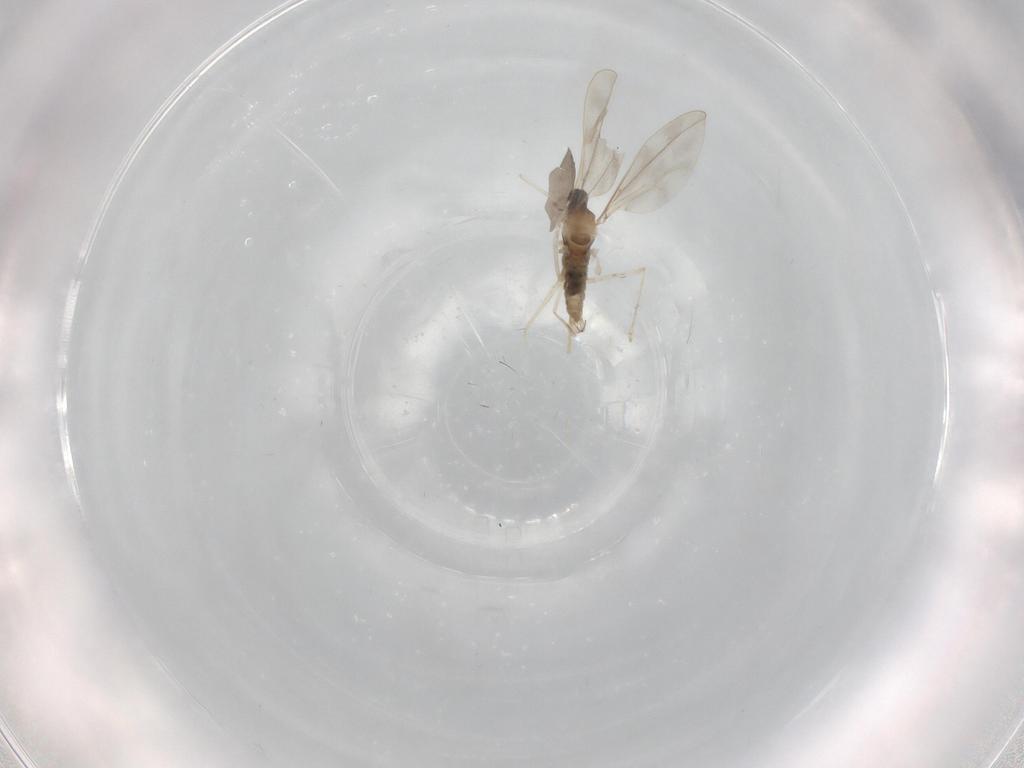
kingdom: Animalia
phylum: Arthropoda
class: Insecta
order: Diptera
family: Cecidomyiidae
